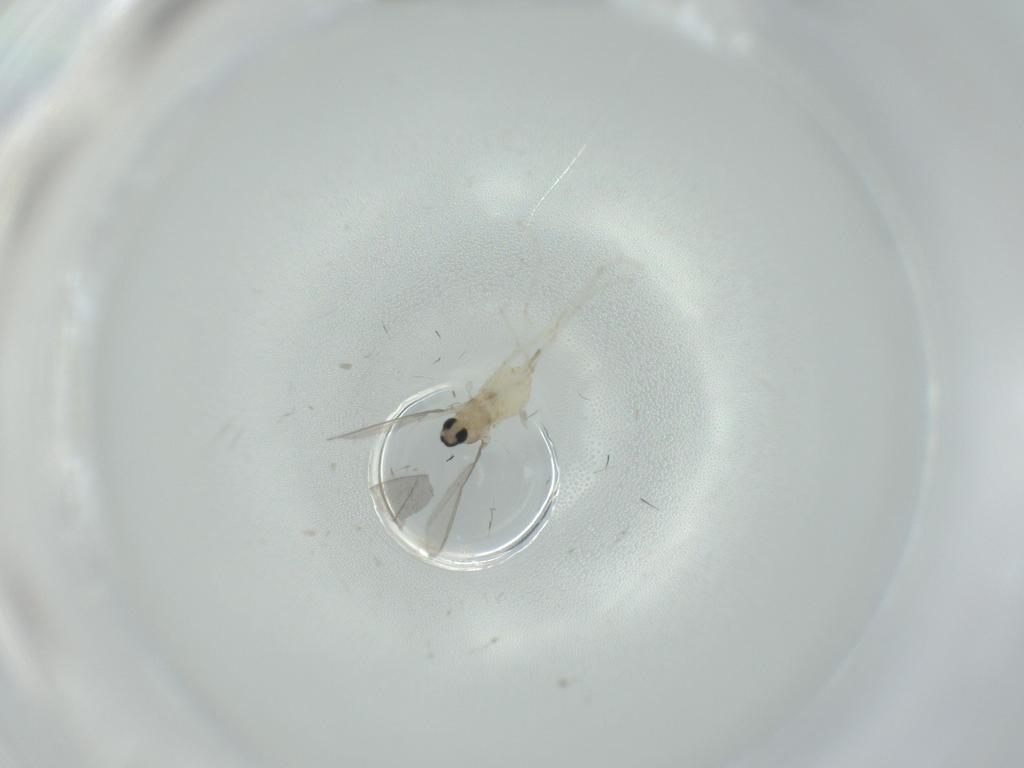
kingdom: Animalia
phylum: Arthropoda
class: Insecta
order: Diptera
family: Cecidomyiidae
